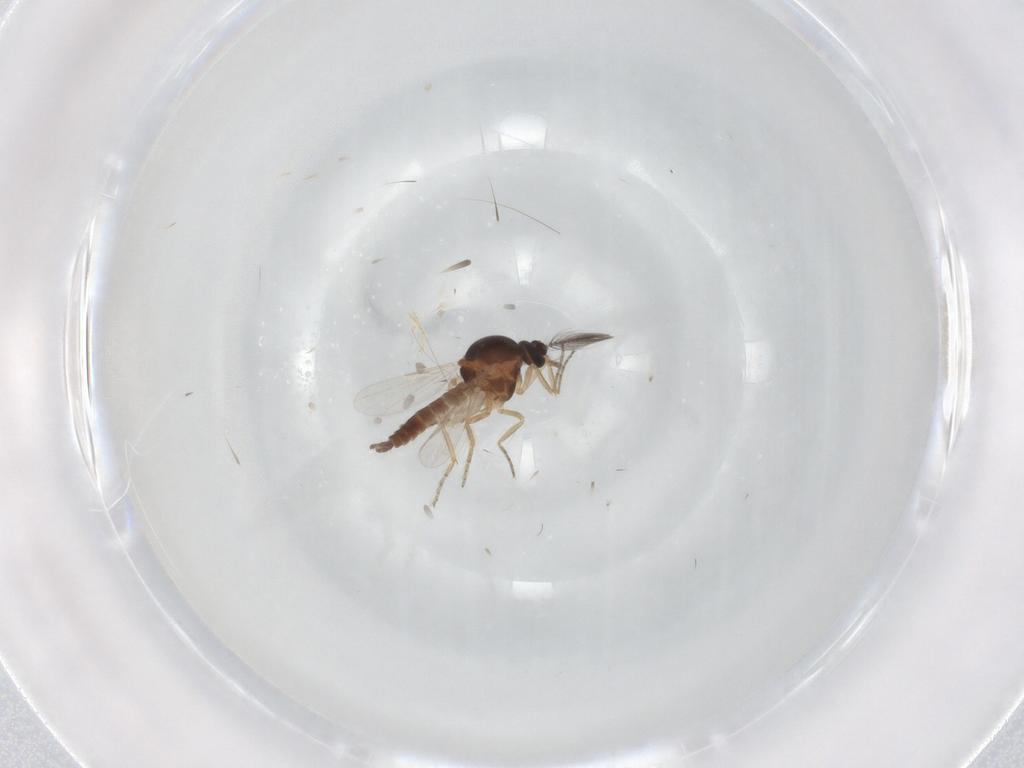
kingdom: Animalia
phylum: Arthropoda
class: Insecta
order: Diptera
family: Ceratopogonidae
